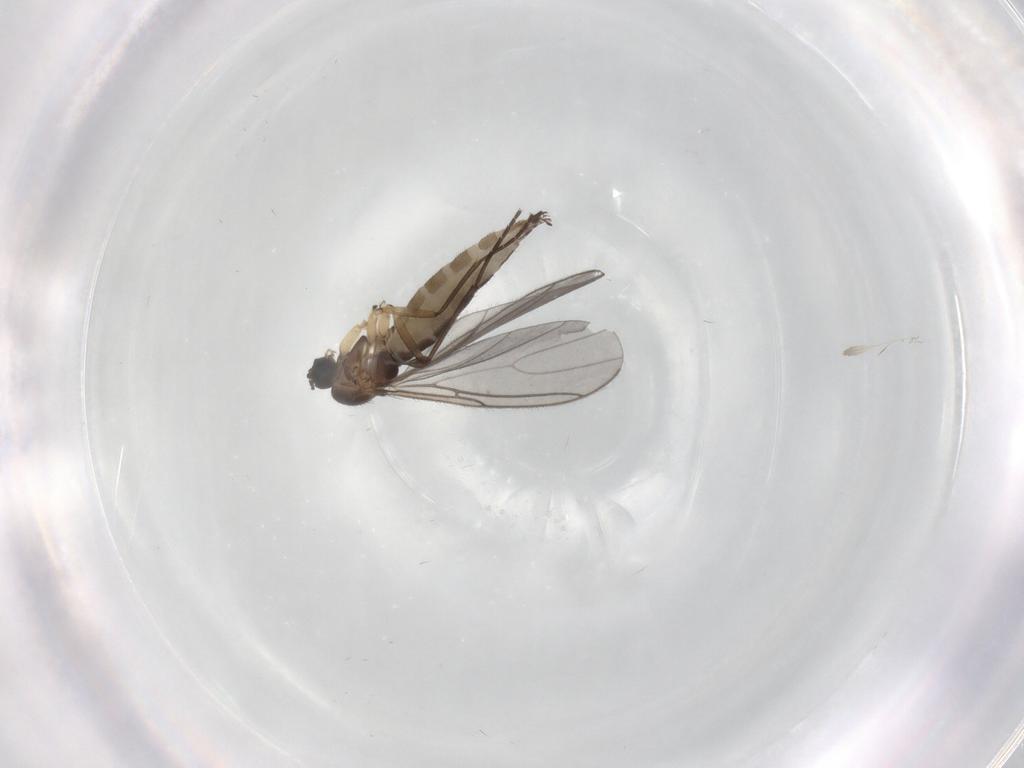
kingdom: Animalia
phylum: Arthropoda
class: Insecta
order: Diptera
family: Sciaridae
